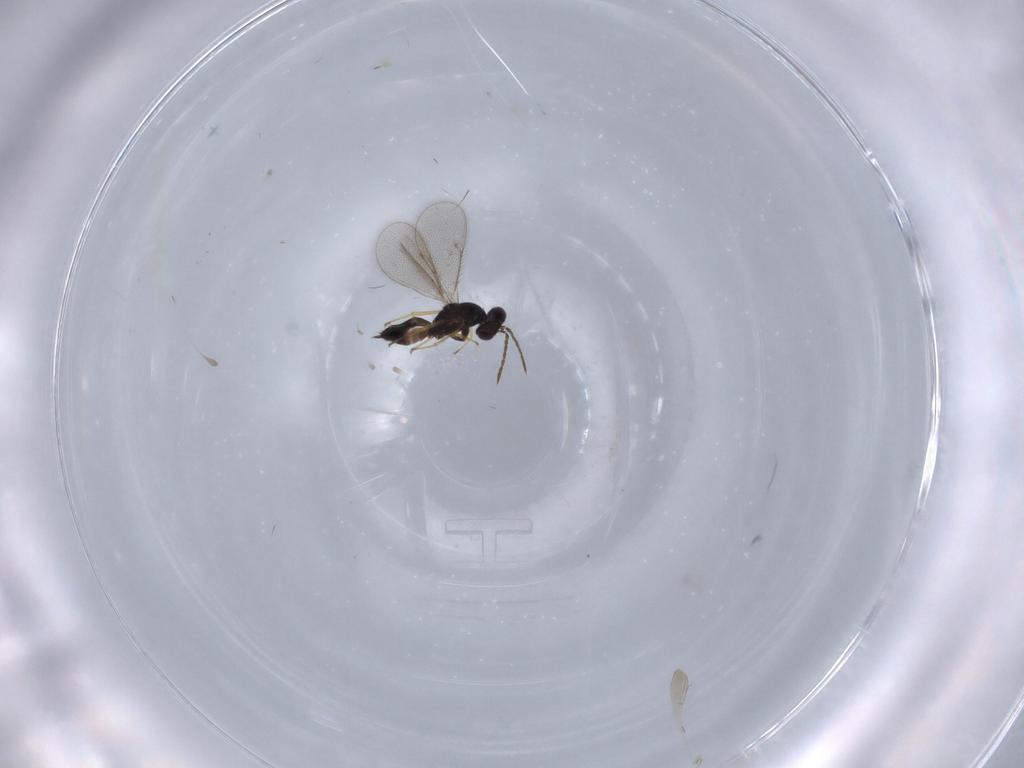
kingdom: Animalia
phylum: Arthropoda
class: Insecta
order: Hymenoptera
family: Eulophidae
